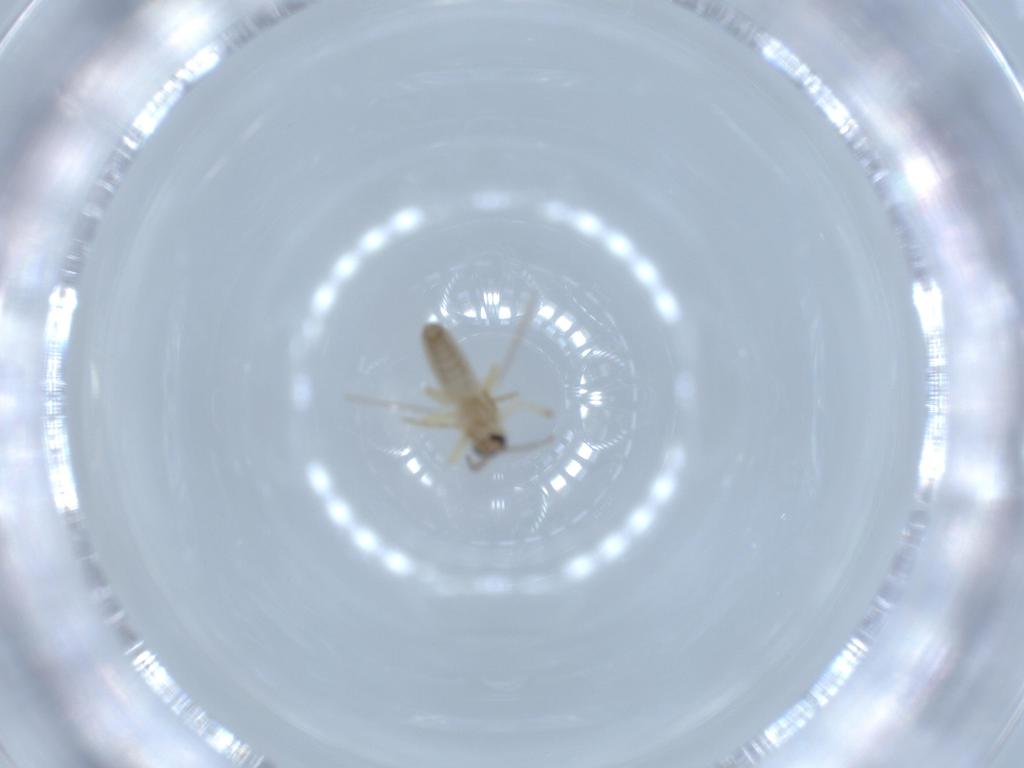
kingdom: Animalia
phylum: Arthropoda
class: Insecta
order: Diptera
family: Ceratopogonidae
